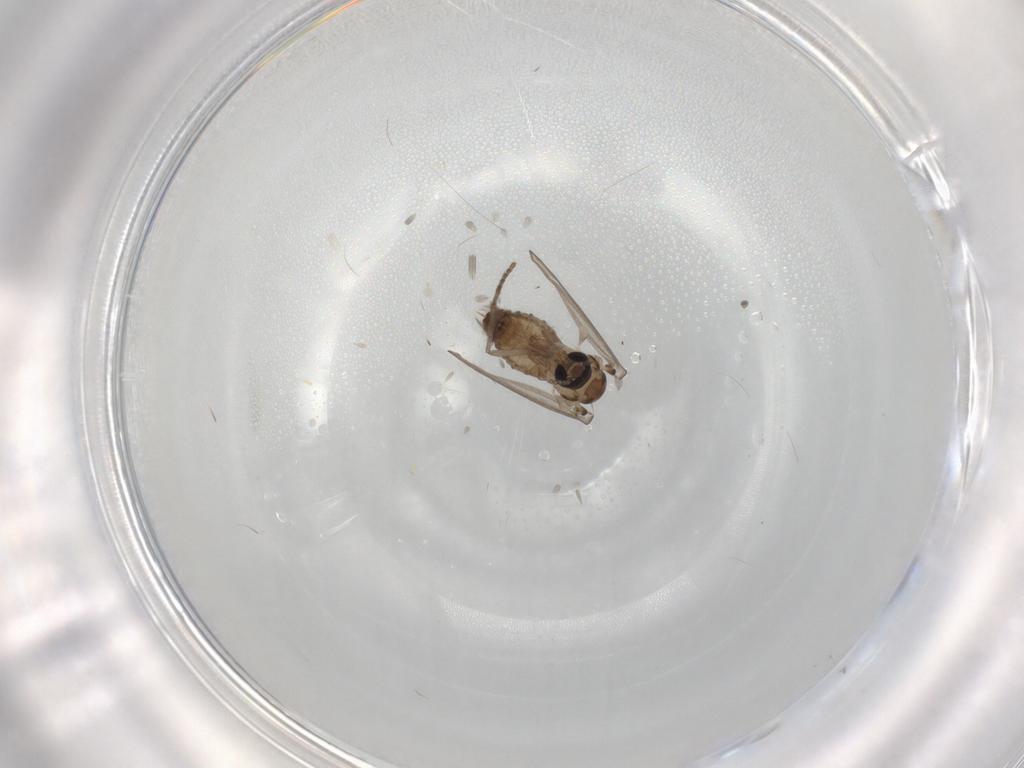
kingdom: Animalia
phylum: Arthropoda
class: Insecta
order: Diptera
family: Psychodidae
